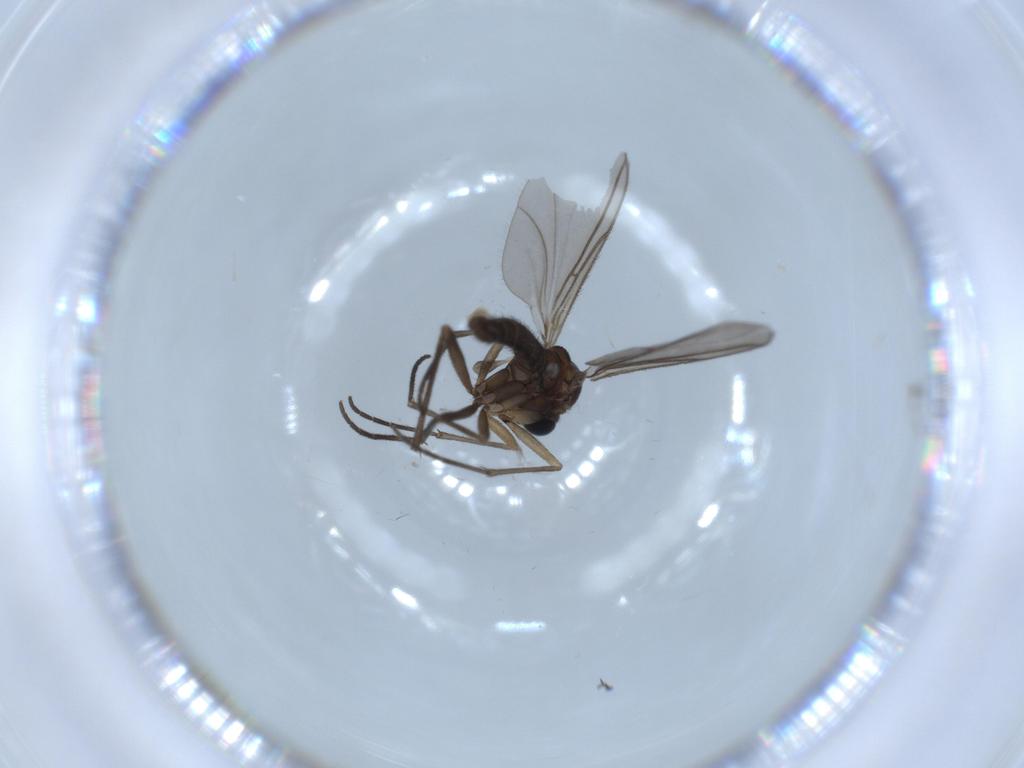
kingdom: Animalia
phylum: Arthropoda
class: Insecta
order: Diptera
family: Sciaridae
